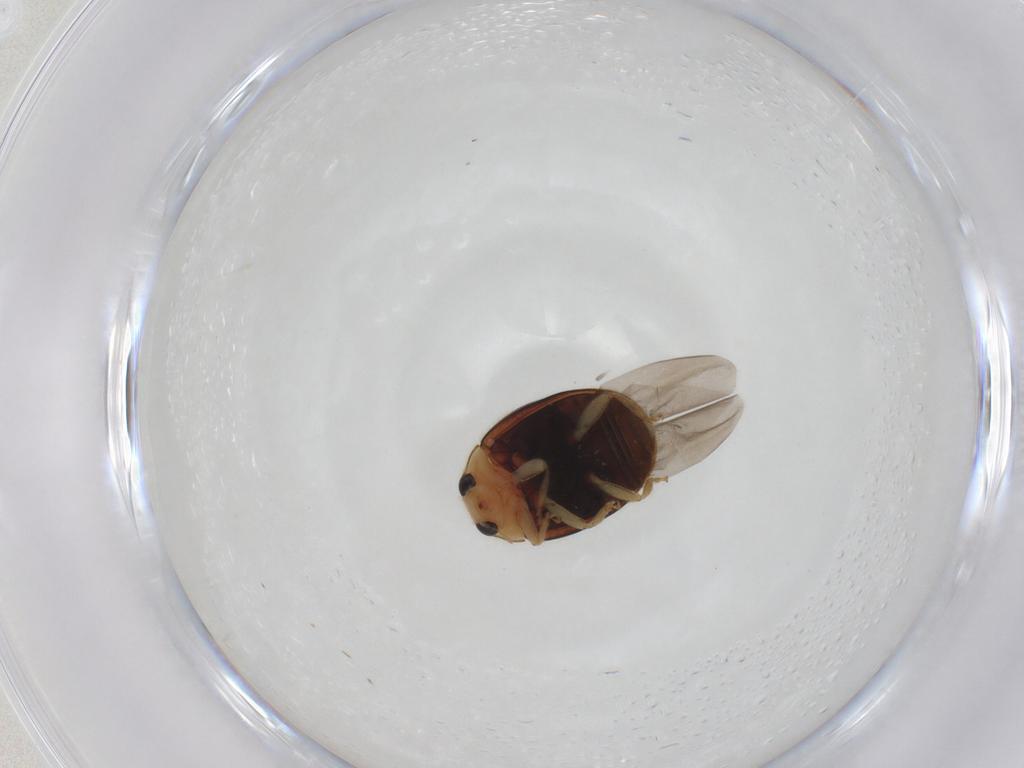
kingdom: Animalia
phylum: Arthropoda
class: Insecta
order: Coleoptera
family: Coccinellidae
